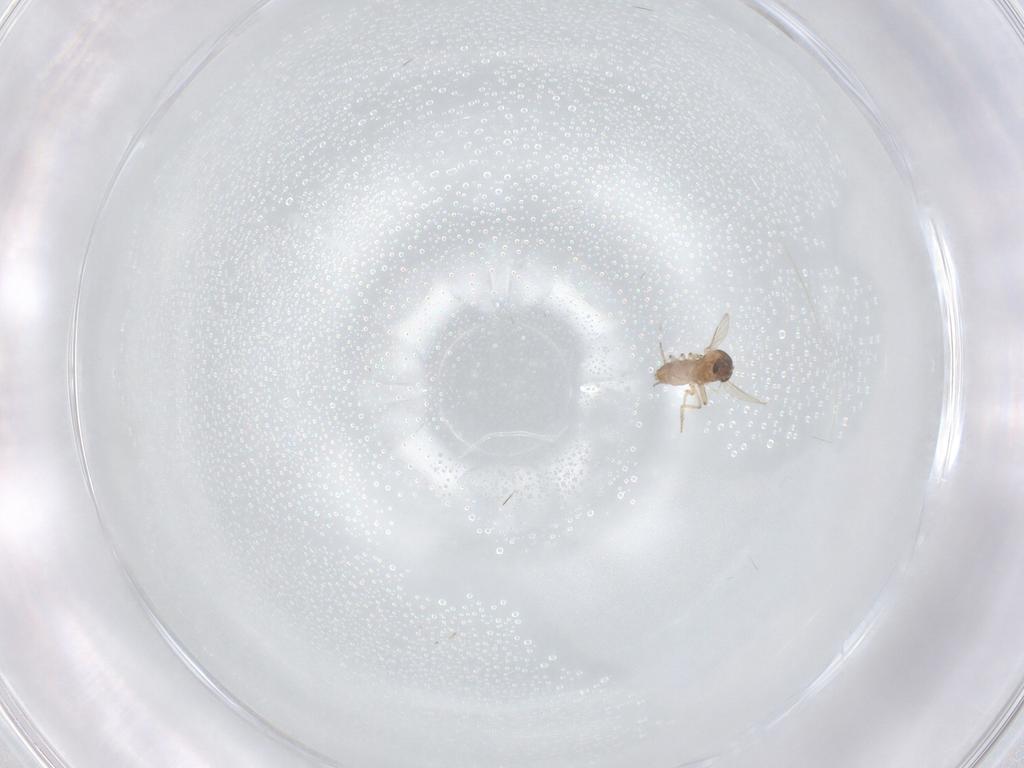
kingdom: Animalia
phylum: Arthropoda
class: Insecta
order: Diptera
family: Ceratopogonidae
